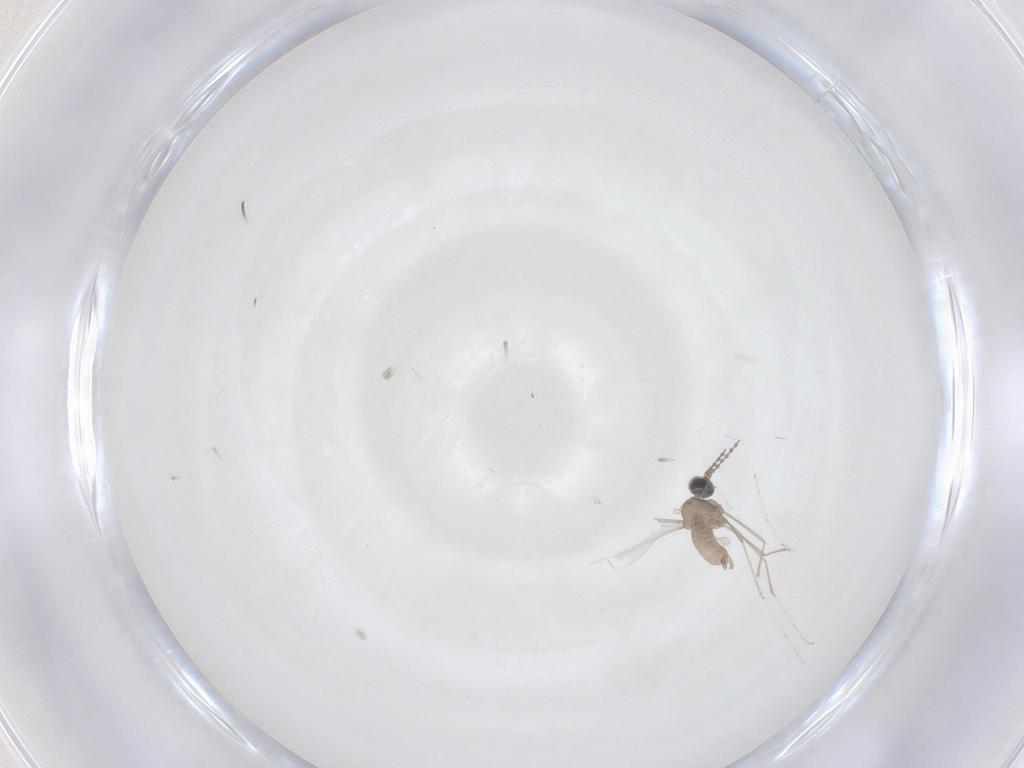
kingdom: Animalia
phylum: Arthropoda
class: Insecta
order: Diptera
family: Cecidomyiidae
